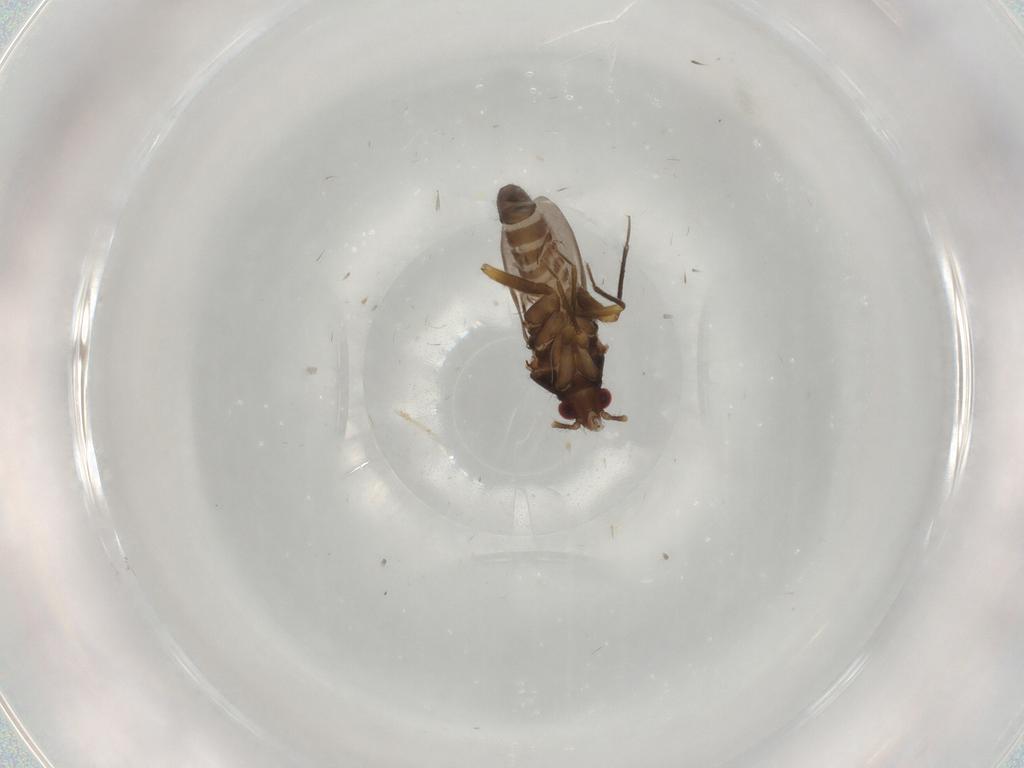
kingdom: Animalia
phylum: Arthropoda
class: Insecta
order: Hemiptera
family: Ceratocombidae
